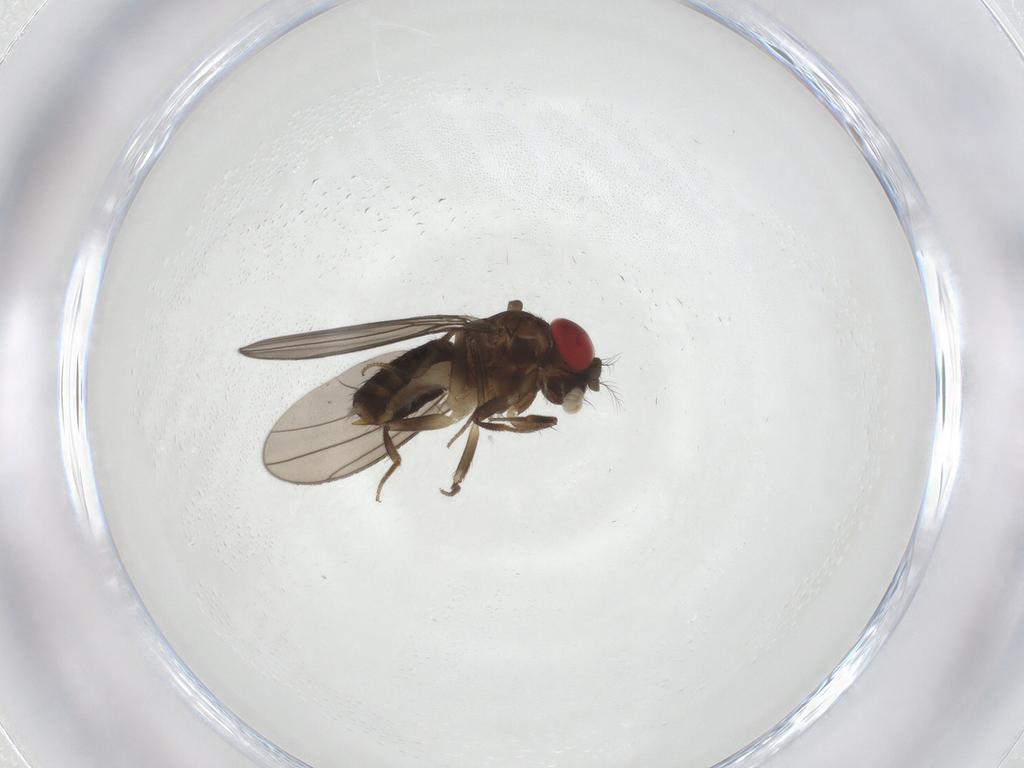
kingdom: Animalia
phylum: Arthropoda
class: Insecta
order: Diptera
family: Drosophilidae
